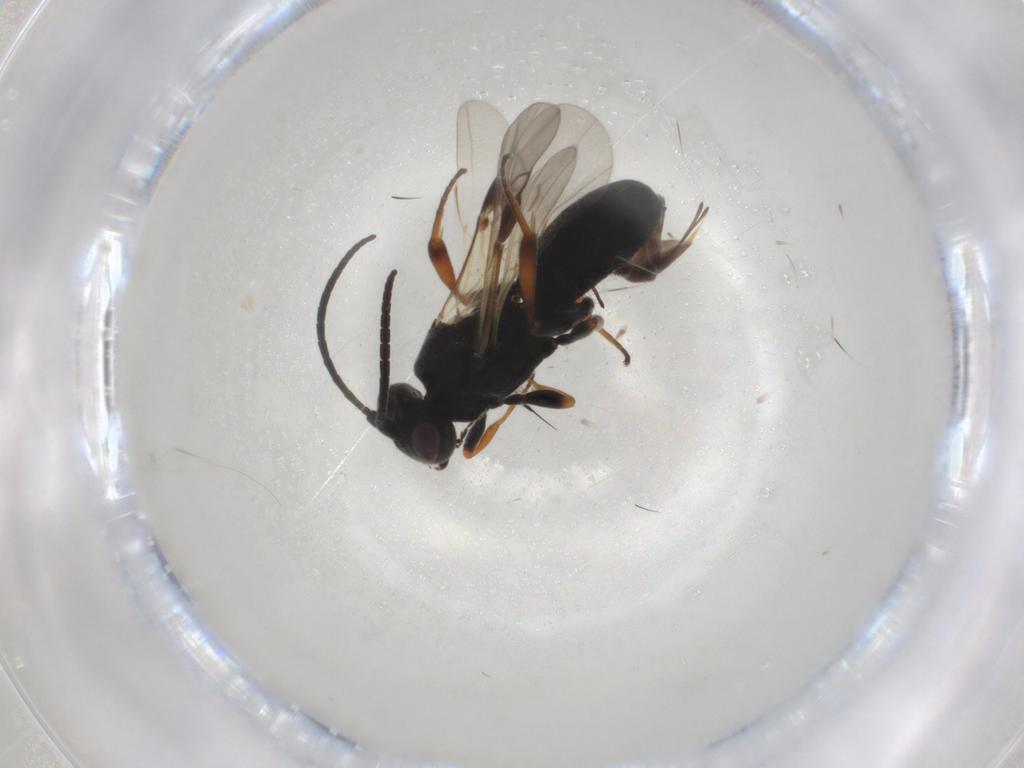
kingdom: Animalia
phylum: Arthropoda
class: Insecta
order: Hymenoptera
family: Braconidae
